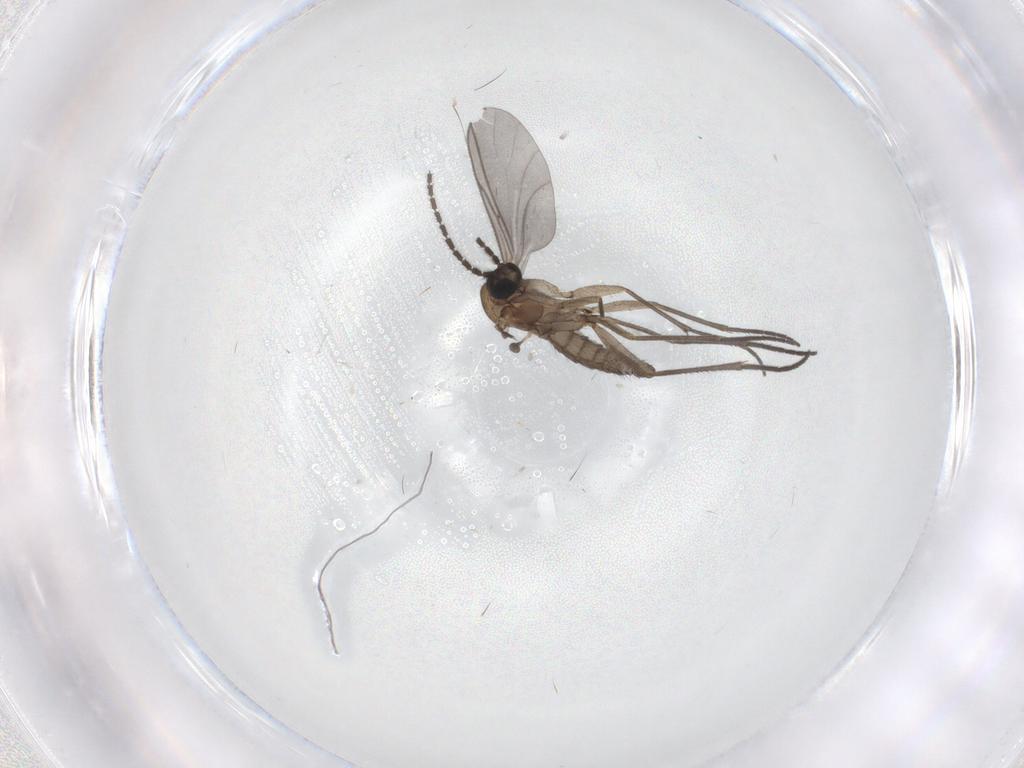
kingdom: Animalia
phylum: Arthropoda
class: Insecta
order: Diptera
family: Sciaridae
